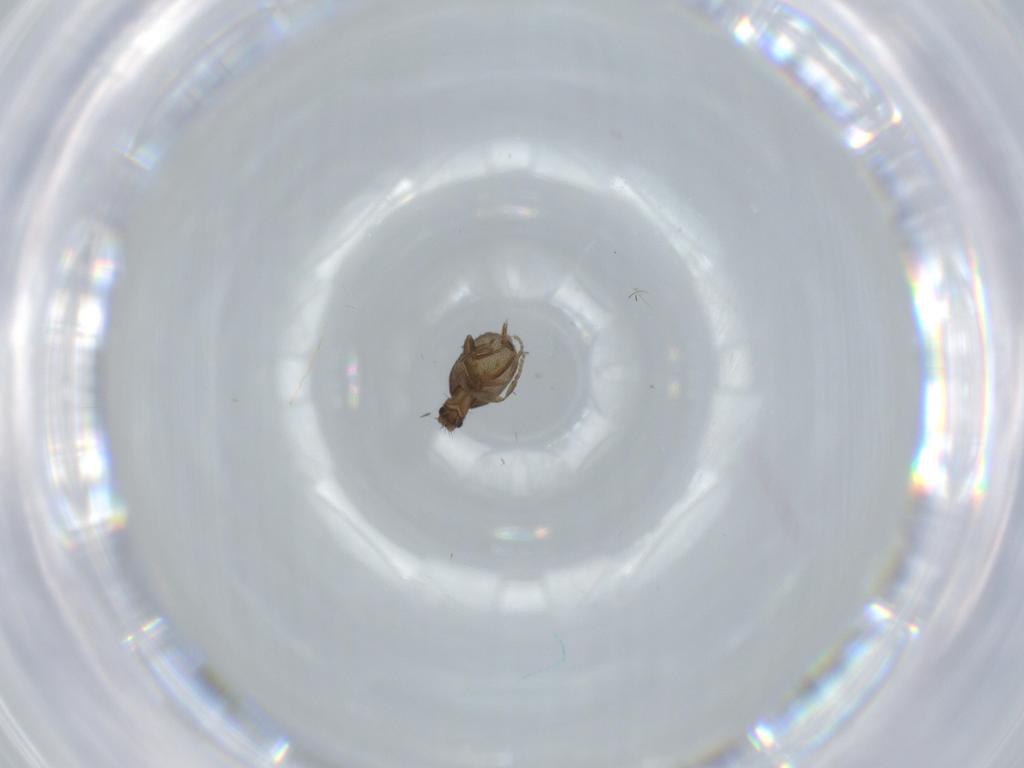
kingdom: Animalia
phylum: Arthropoda
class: Insecta
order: Diptera
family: Phoridae
